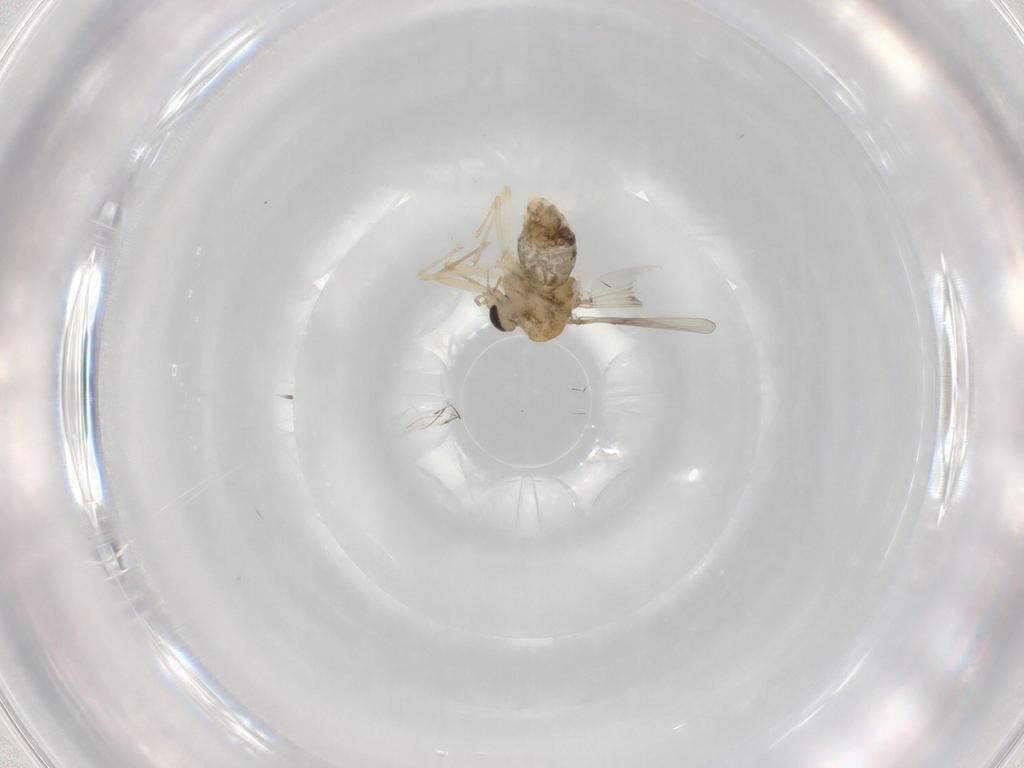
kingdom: Animalia
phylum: Arthropoda
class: Insecta
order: Diptera
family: Chironomidae
